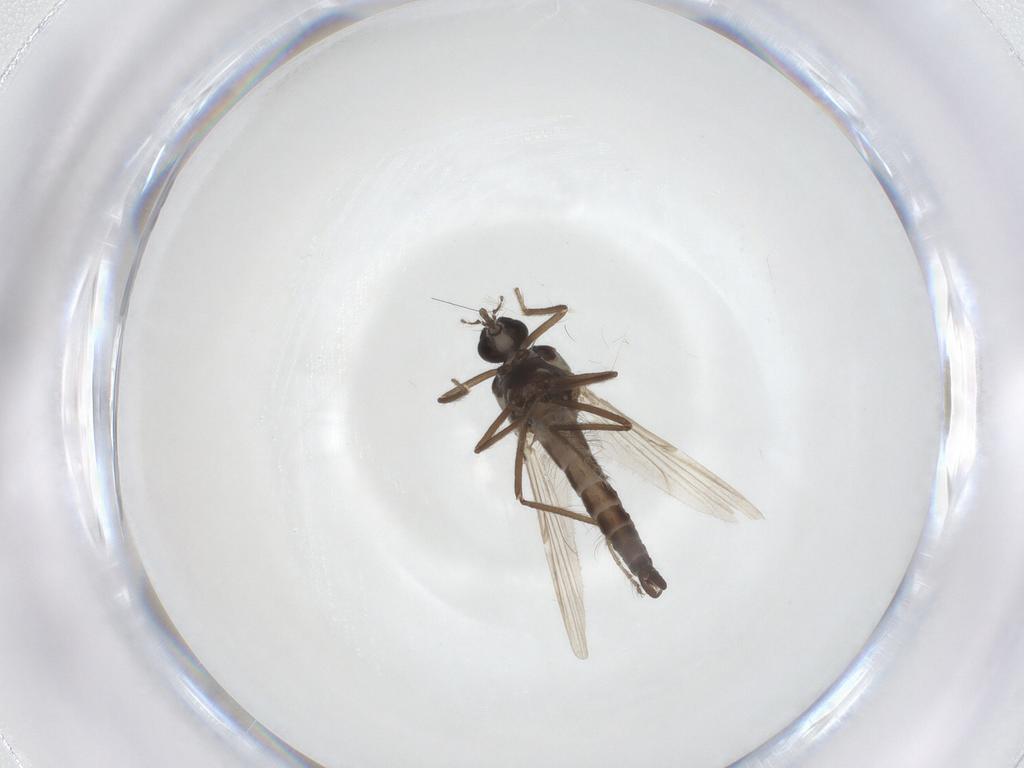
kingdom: Animalia
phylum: Arthropoda
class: Insecta
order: Diptera
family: Ceratopogonidae
